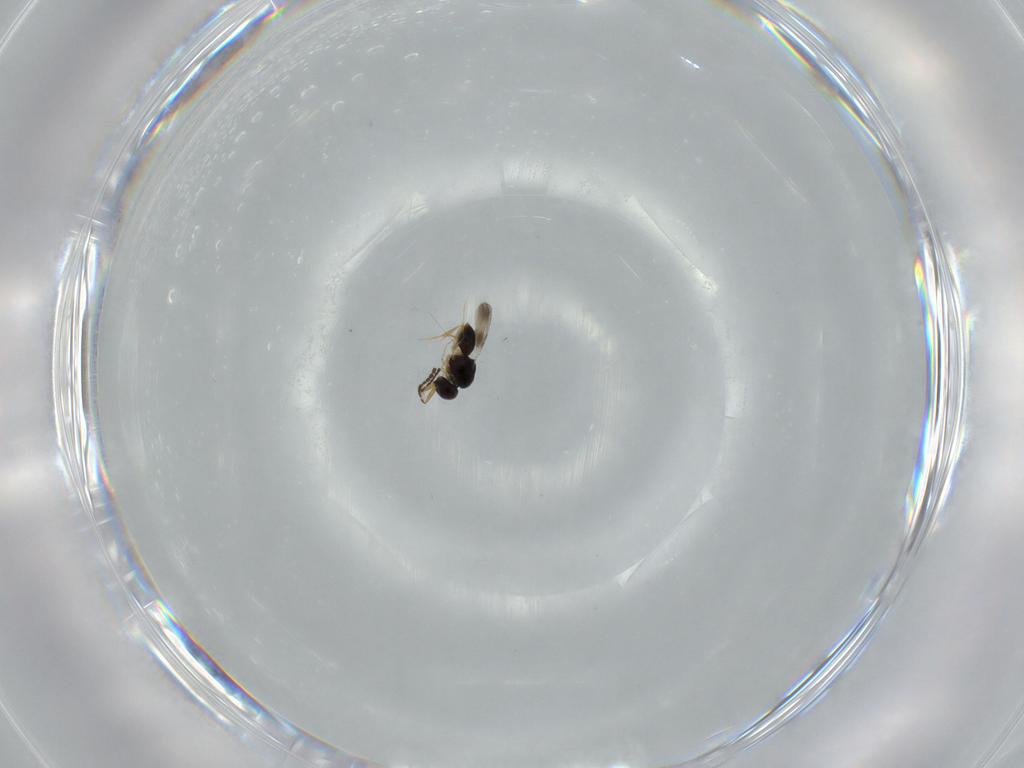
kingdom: Animalia
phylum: Arthropoda
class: Insecta
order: Hymenoptera
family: Ceraphronidae
